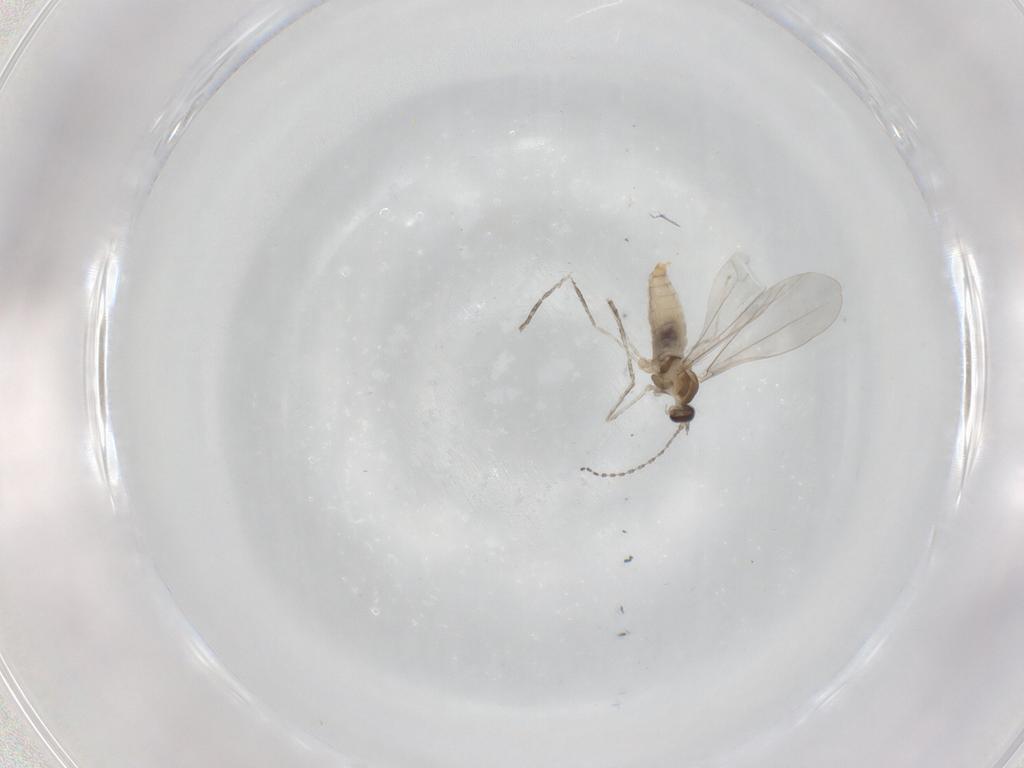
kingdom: Animalia
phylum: Arthropoda
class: Insecta
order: Diptera
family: Cecidomyiidae
